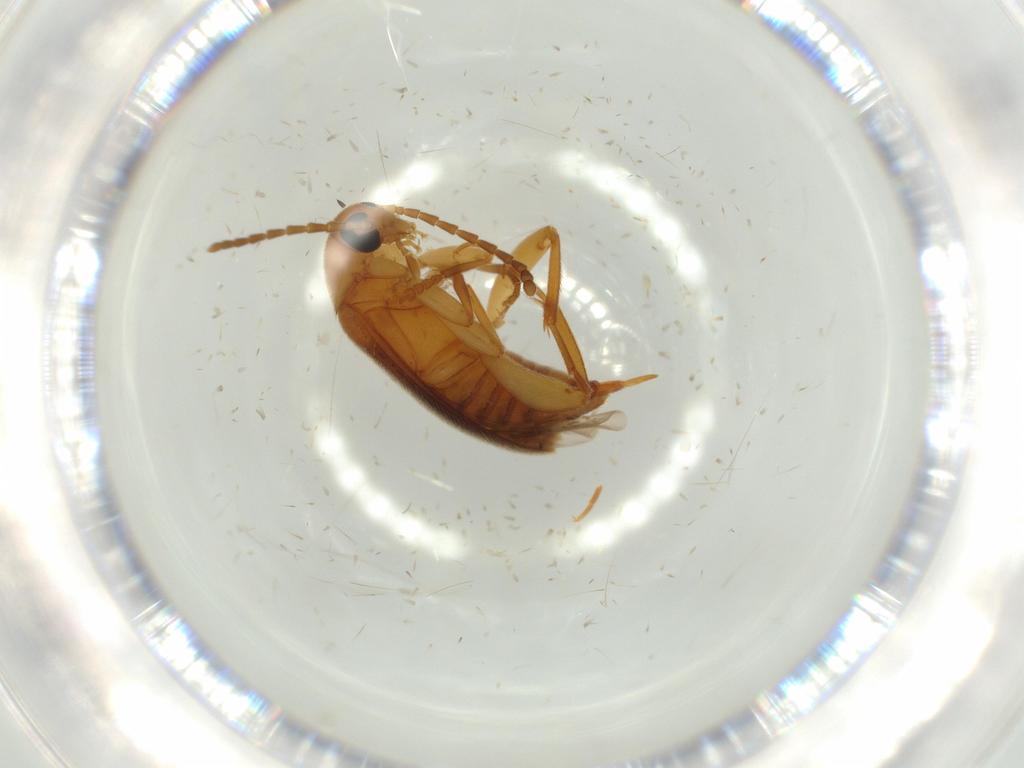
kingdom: Animalia
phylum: Arthropoda
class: Insecta
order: Coleoptera
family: Scraptiidae
